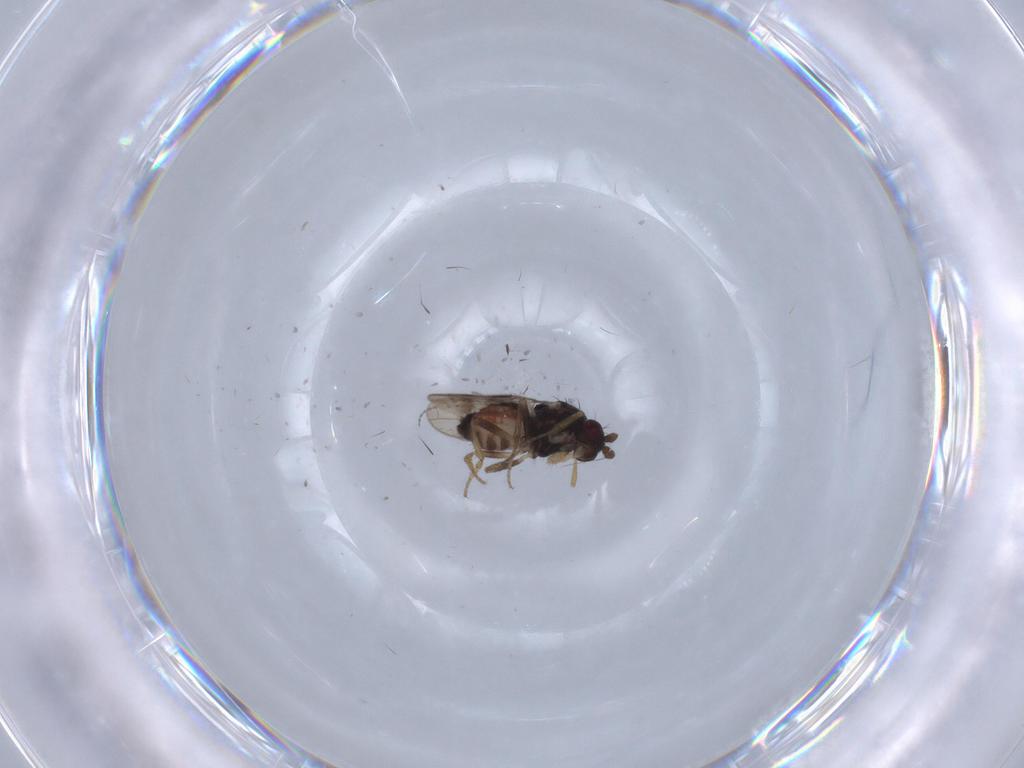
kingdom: Animalia
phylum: Arthropoda
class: Insecta
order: Diptera
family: Sphaeroceridae
